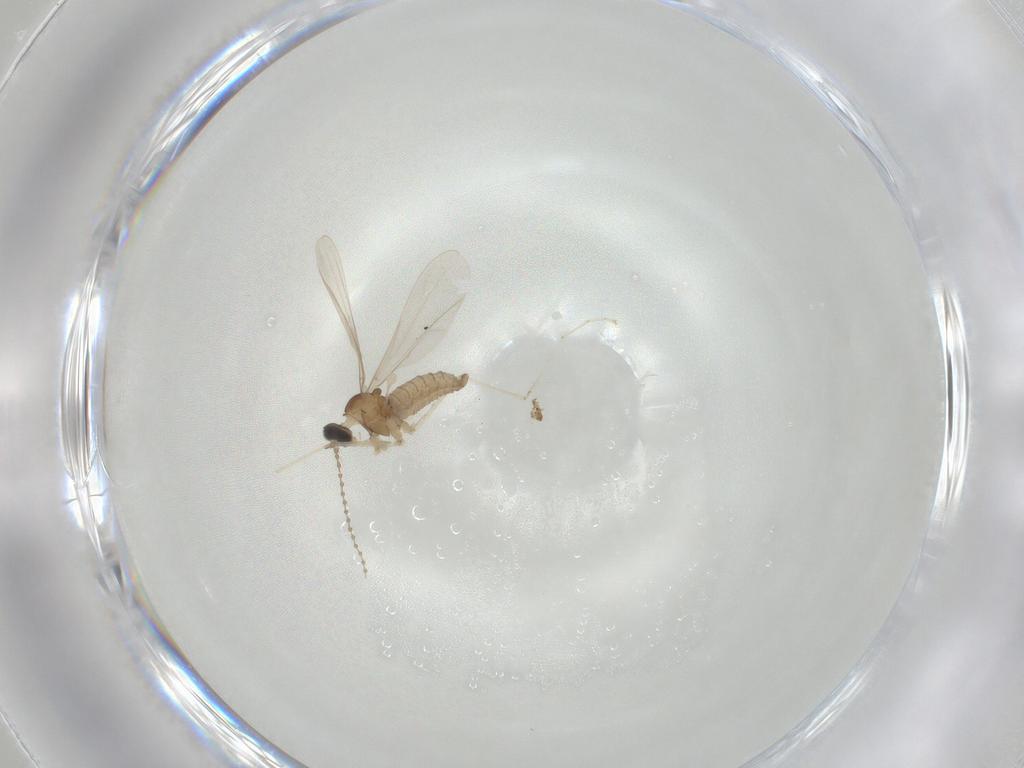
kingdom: Animalia
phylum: Arthropoda
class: Insecta
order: Diptera
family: Cecidomyiidae
